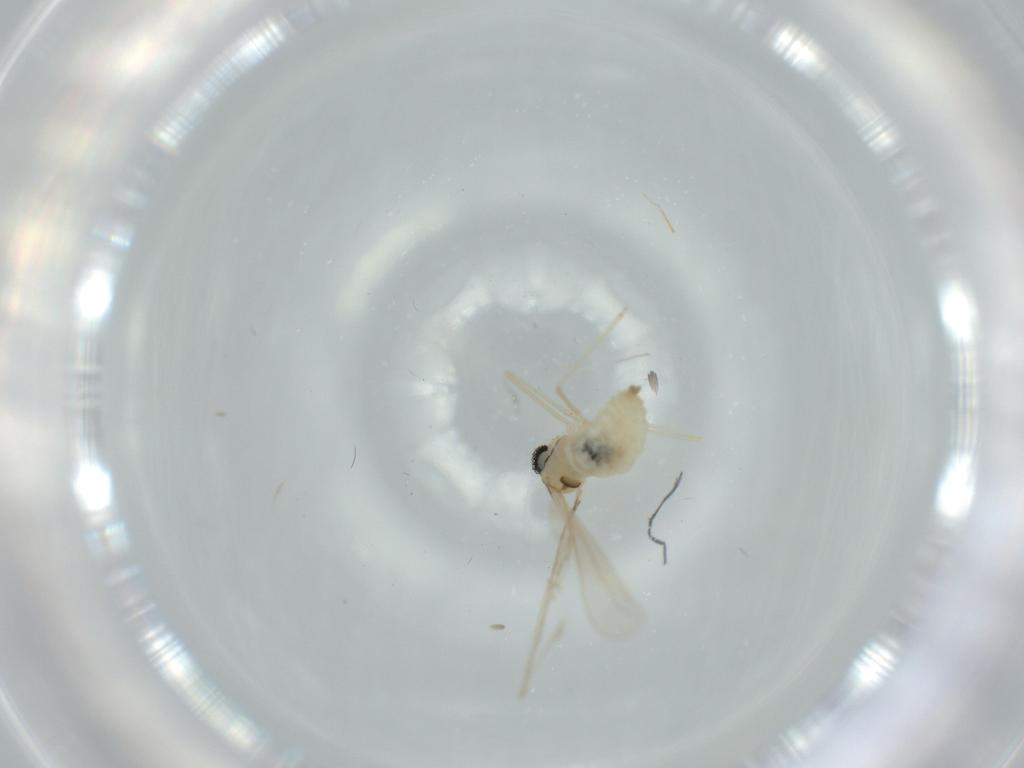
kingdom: Animalia
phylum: Arthropoda
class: Insecta
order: Diptera
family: Cecidomyiidae
